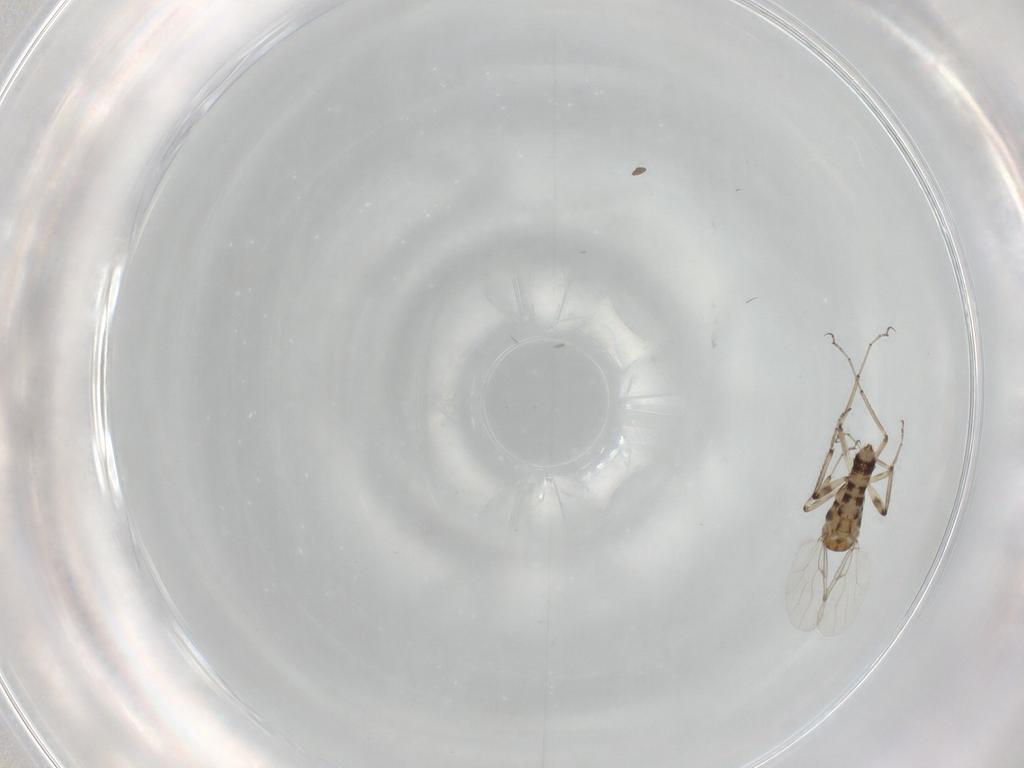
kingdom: Animalia
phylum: Arthropoda
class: Insecta
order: Diptera
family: Ceratopogonidae
